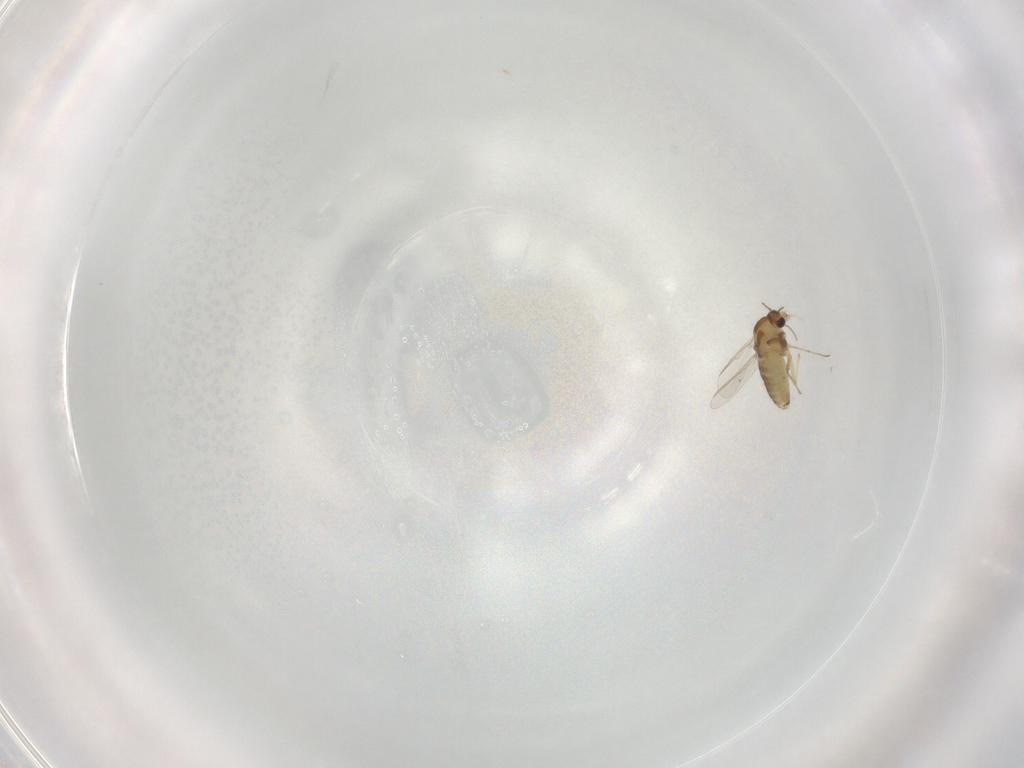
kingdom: Animalia
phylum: Arthropoda
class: Insecta
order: Diptera
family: Chironomidae
